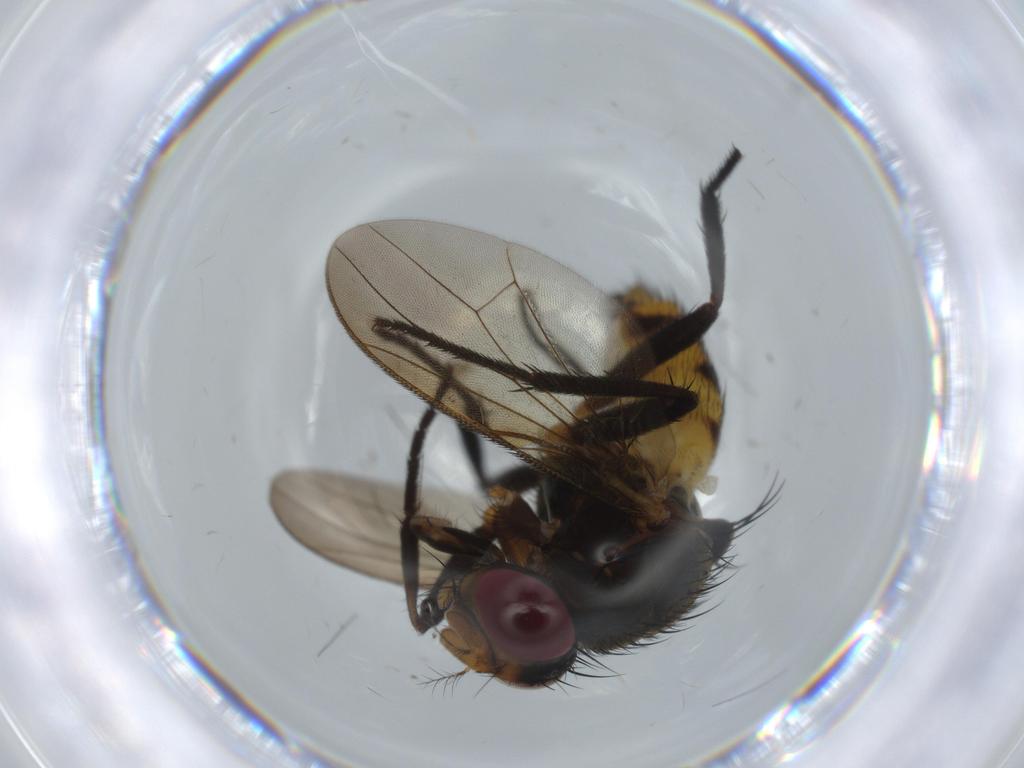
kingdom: Animalia
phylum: Arthropoda
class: Insecta
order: Diptera
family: Anthomyiidae
